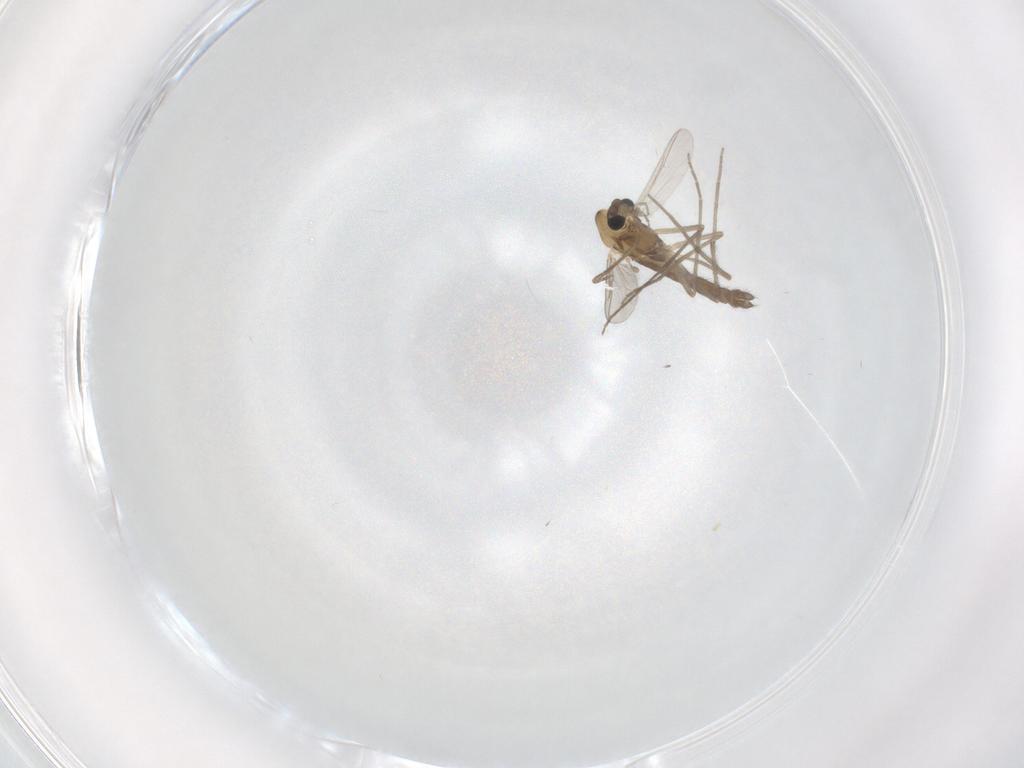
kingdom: Animalia
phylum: Arthropoda
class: Insecta
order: Diptera
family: Chironomidae
